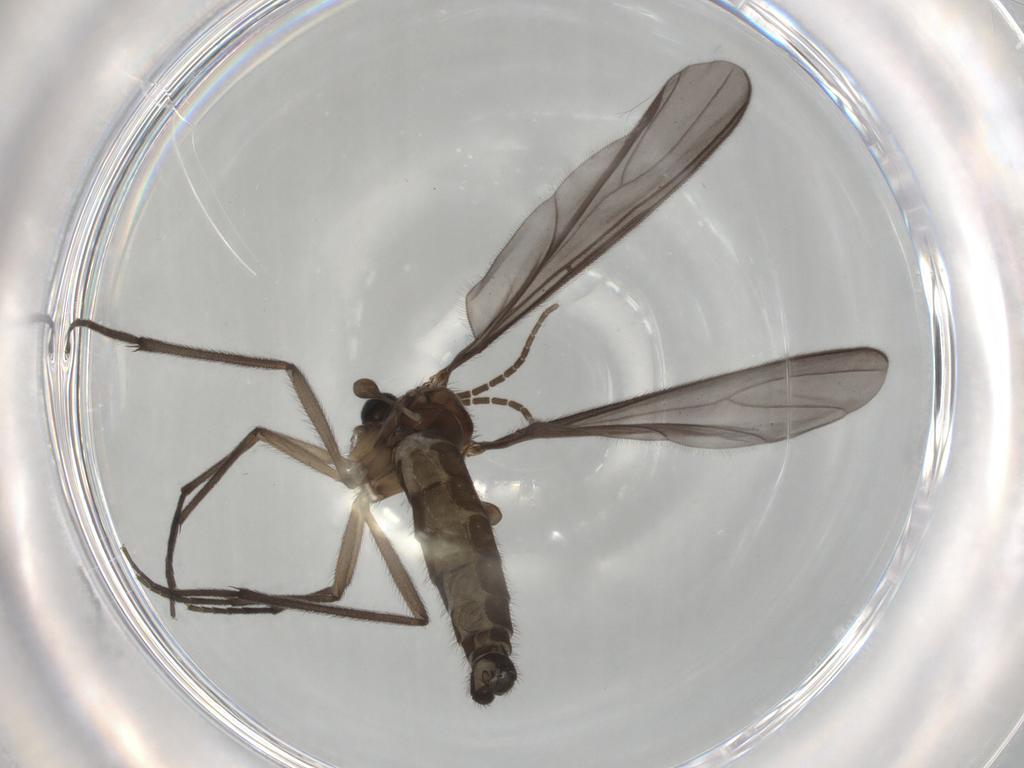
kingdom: Animalia
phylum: Arthropoda
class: Insecta
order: Diptera
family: Sciaridae
